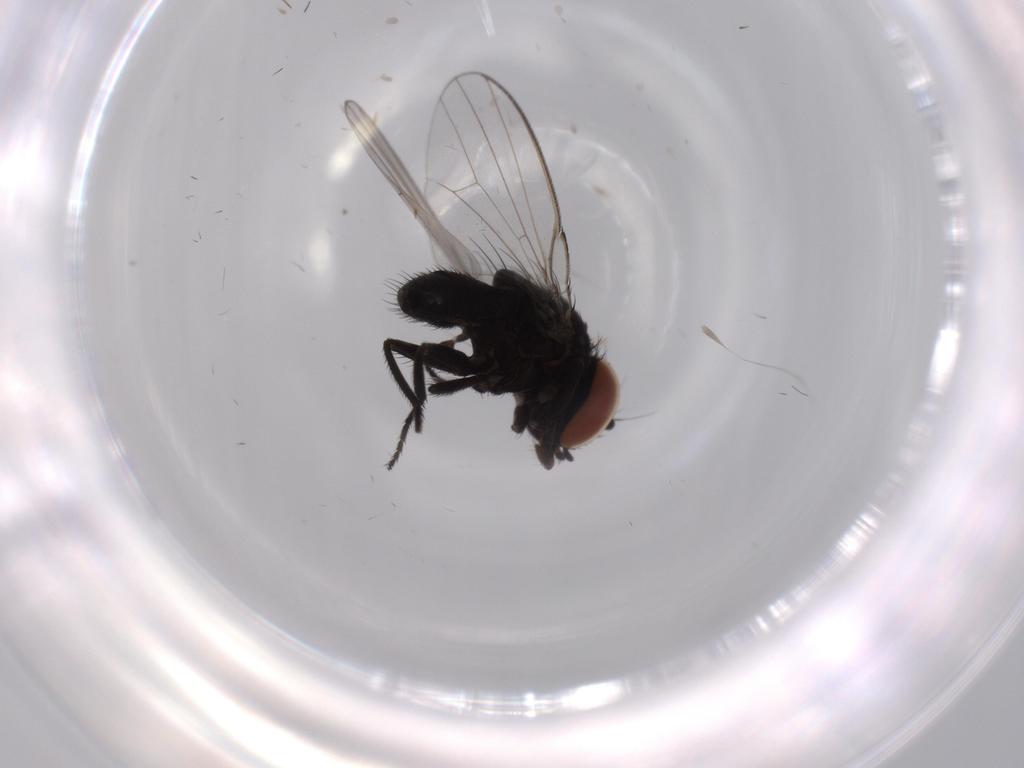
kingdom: Animalia
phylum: Arthropoda
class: Insecta
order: Diptera
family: Milichiidae
